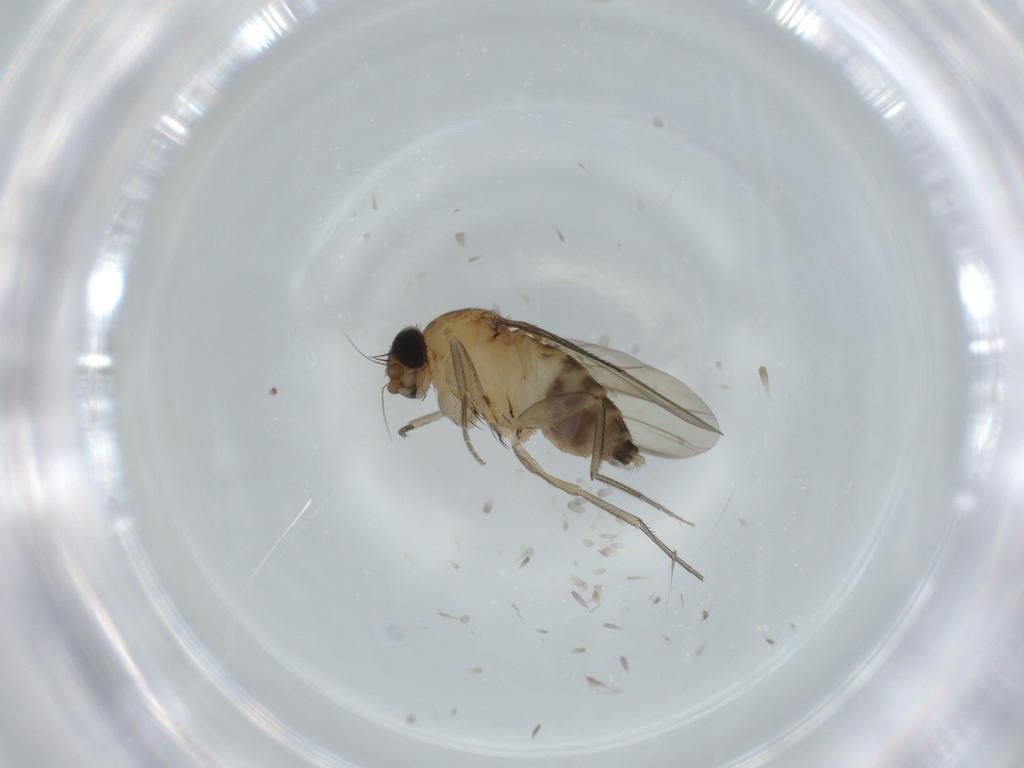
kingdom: Animalia
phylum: Arthropoda
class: Insecta
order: Diptera
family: Phoridae
